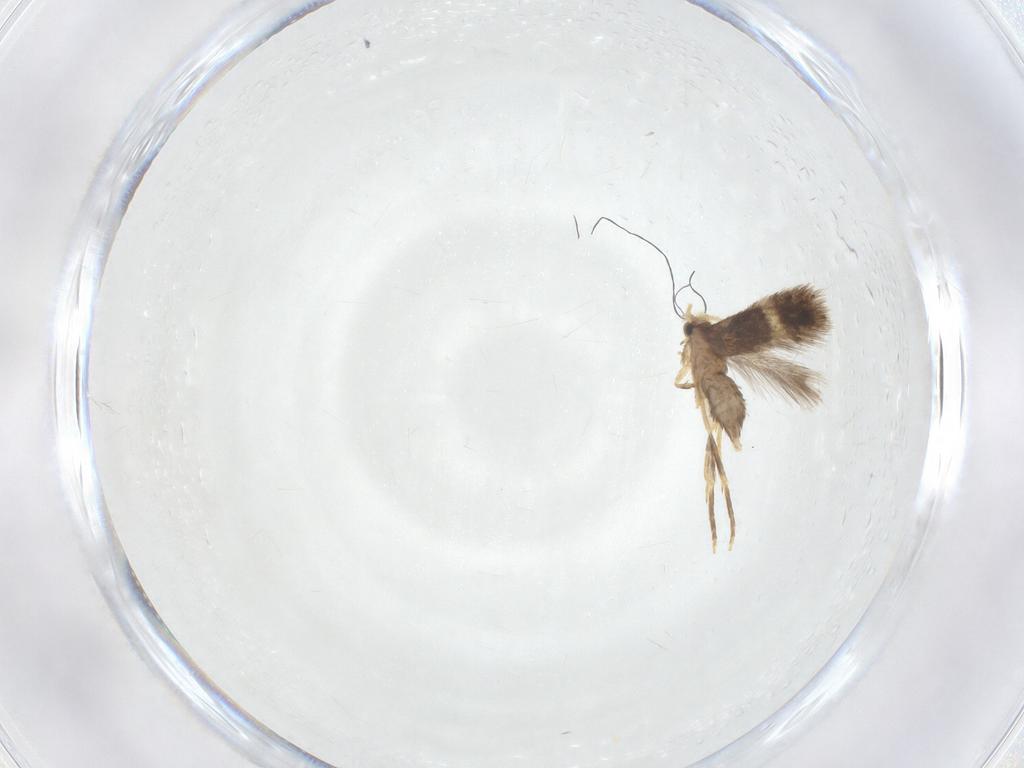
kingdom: Animalia
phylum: Arthropoda
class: Insecta
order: Lepidoptera
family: Nepticulidae
